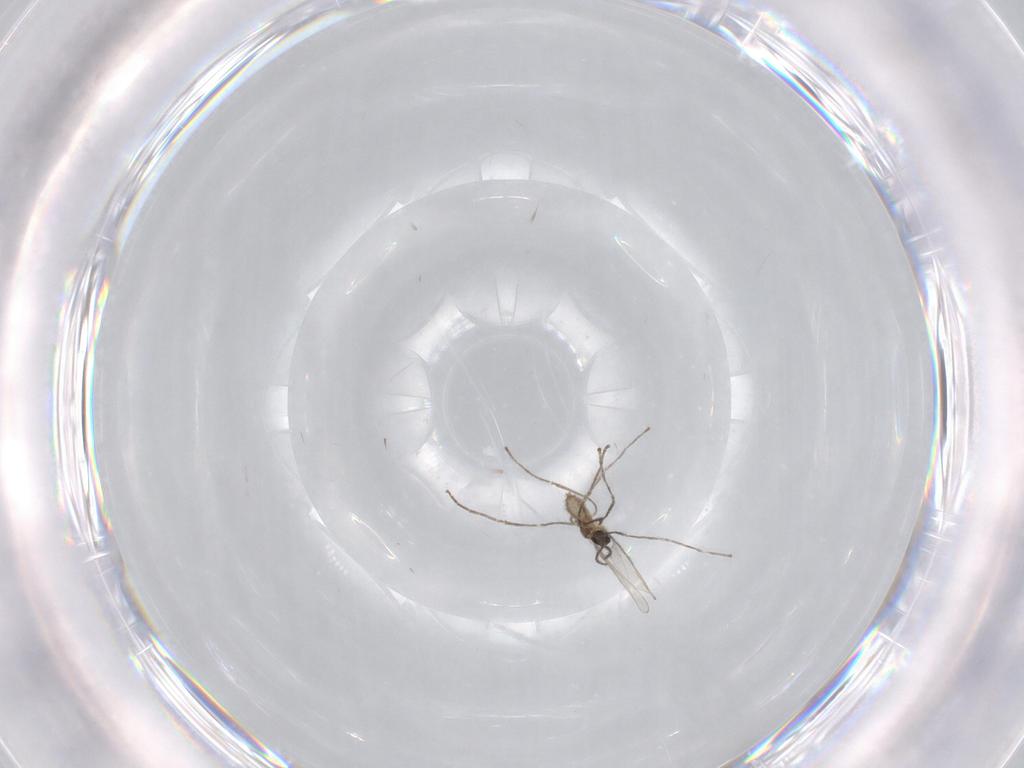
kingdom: Animalia
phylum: Arthropoda
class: Insecta
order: Diptera
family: Cecidomyiidae
